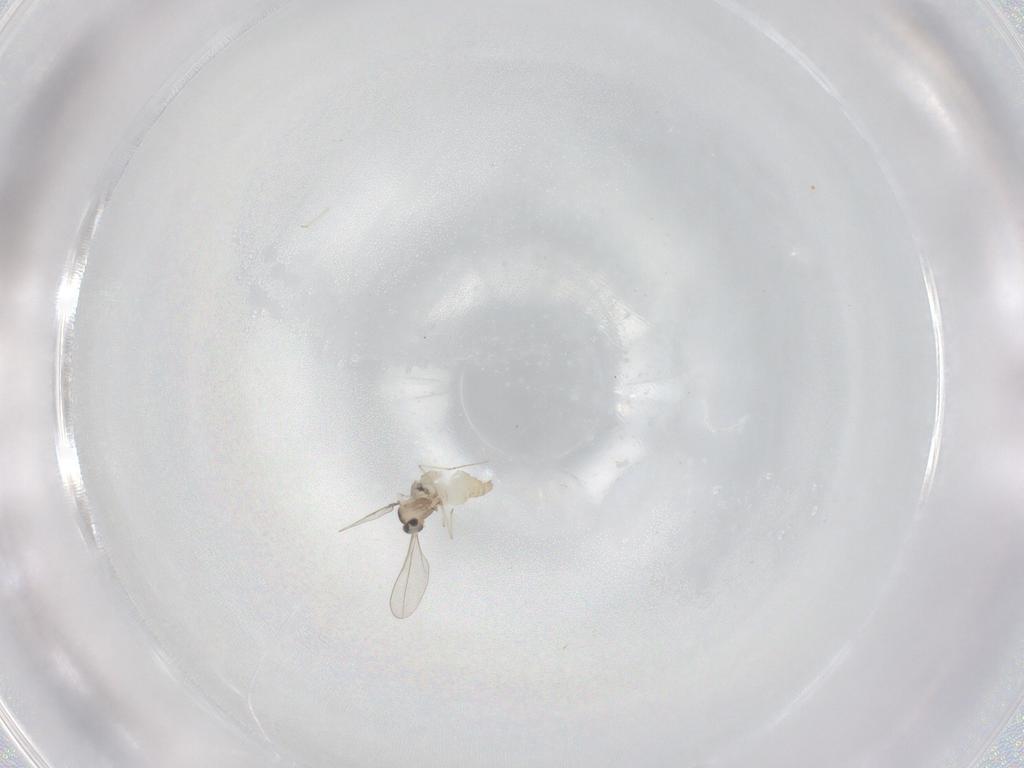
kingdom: Animalia
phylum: Arthropoda
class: Insecta
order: Diptera
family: Cecidomyiidae
